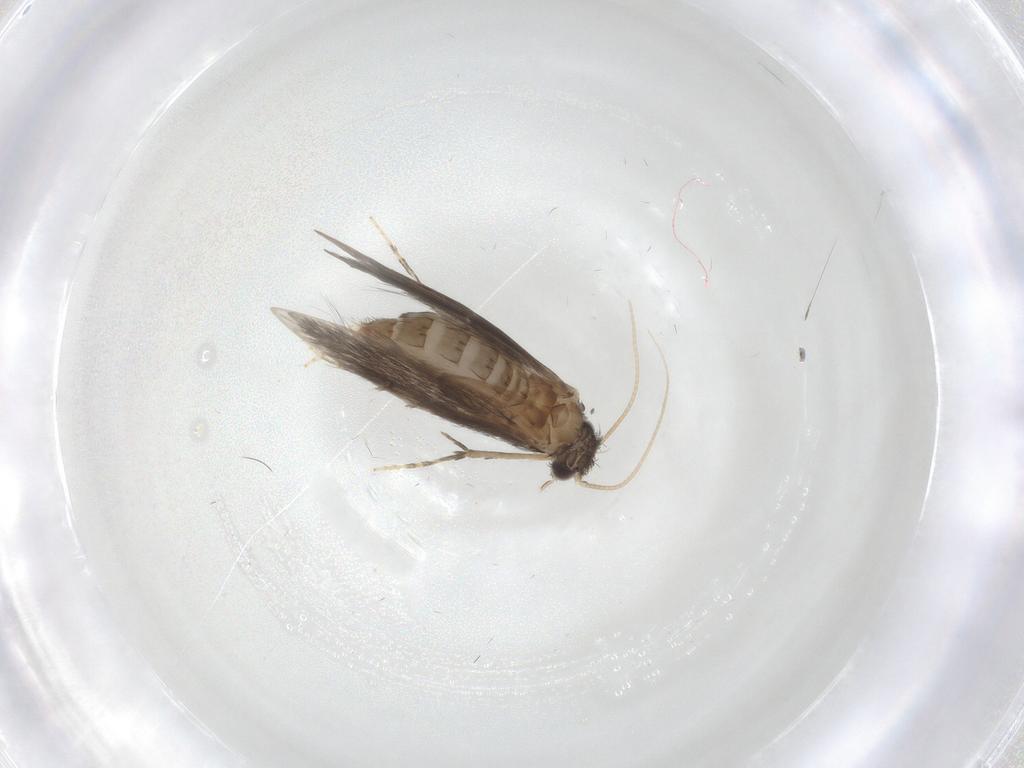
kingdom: Animalia
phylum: Arthropoda
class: Insecta
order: Trichoptera
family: Hydroptilidae
